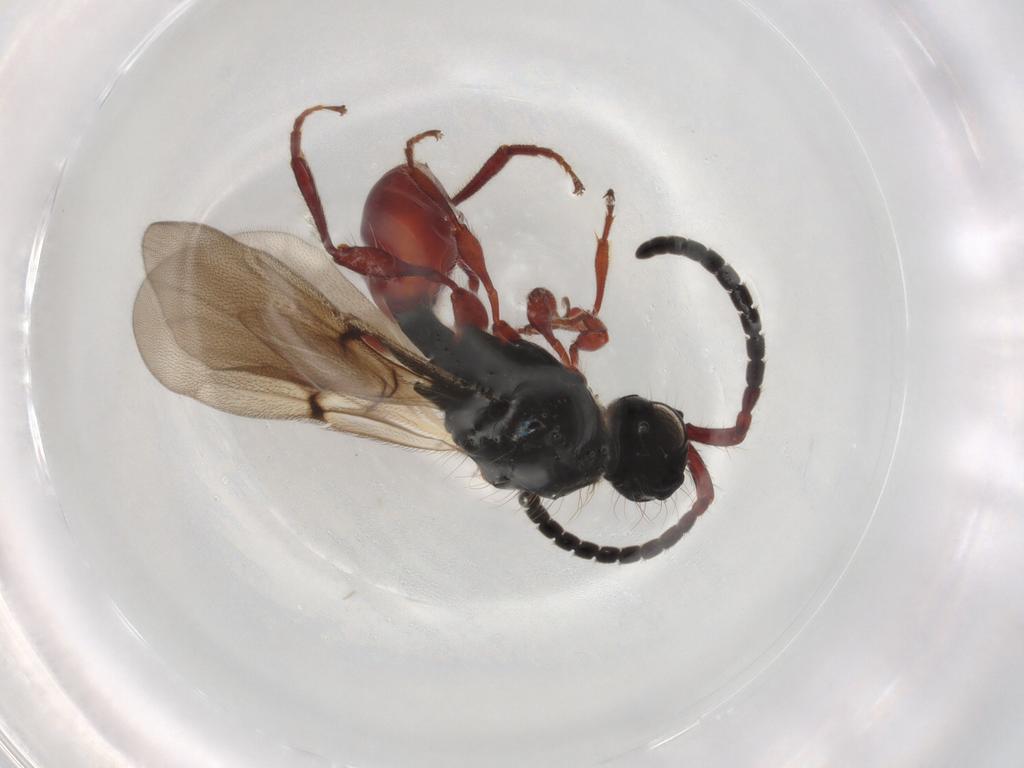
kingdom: Animalia
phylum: Arthropoda
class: Insecta
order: Hymenoptera
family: Diapriidae
